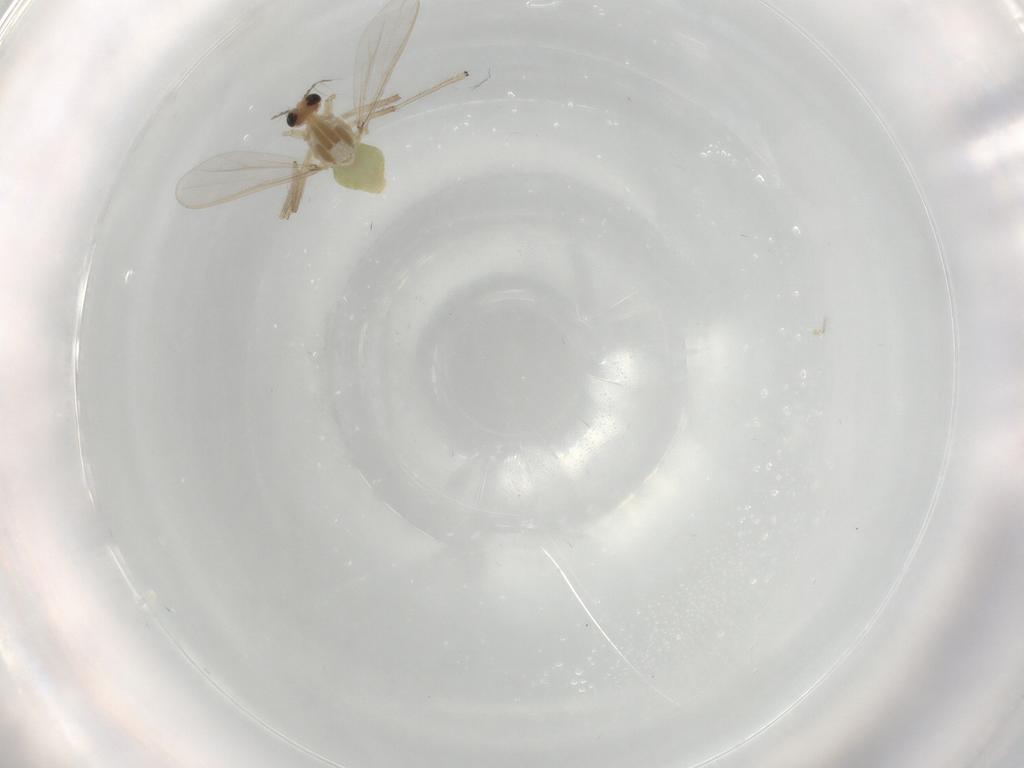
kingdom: Animalia
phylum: Arthropoda
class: Insecta
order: Diptera
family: Chironomidae
